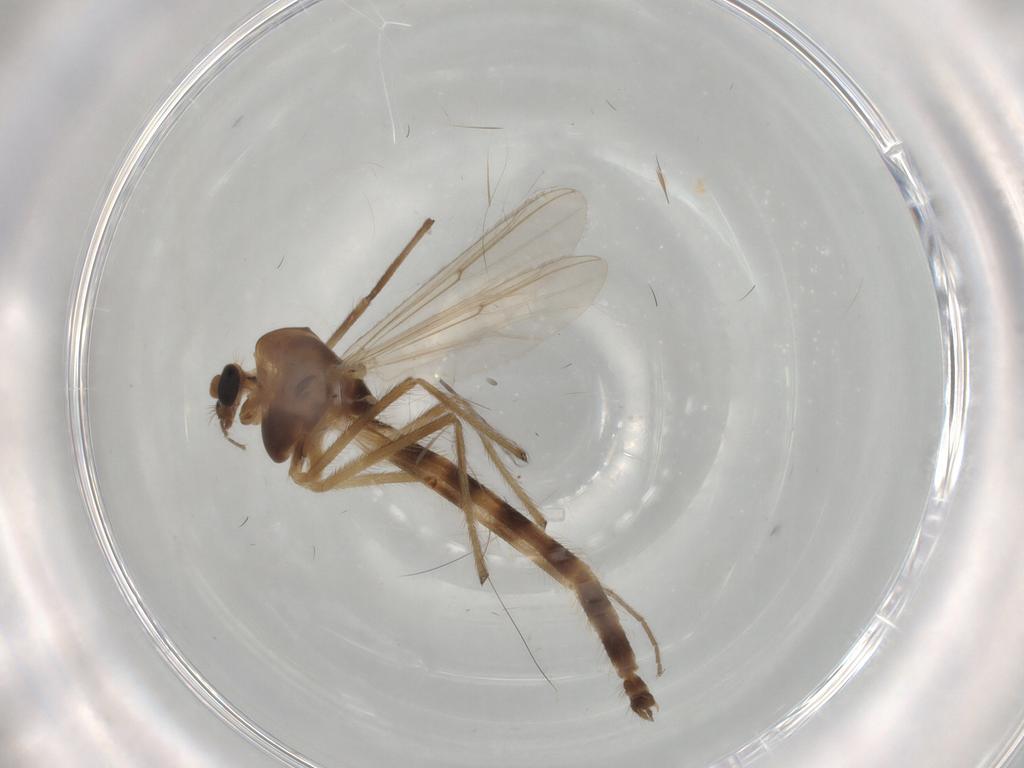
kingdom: Animalia
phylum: Arthropoda
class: Insecta
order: Diptera
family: Chironomidae
